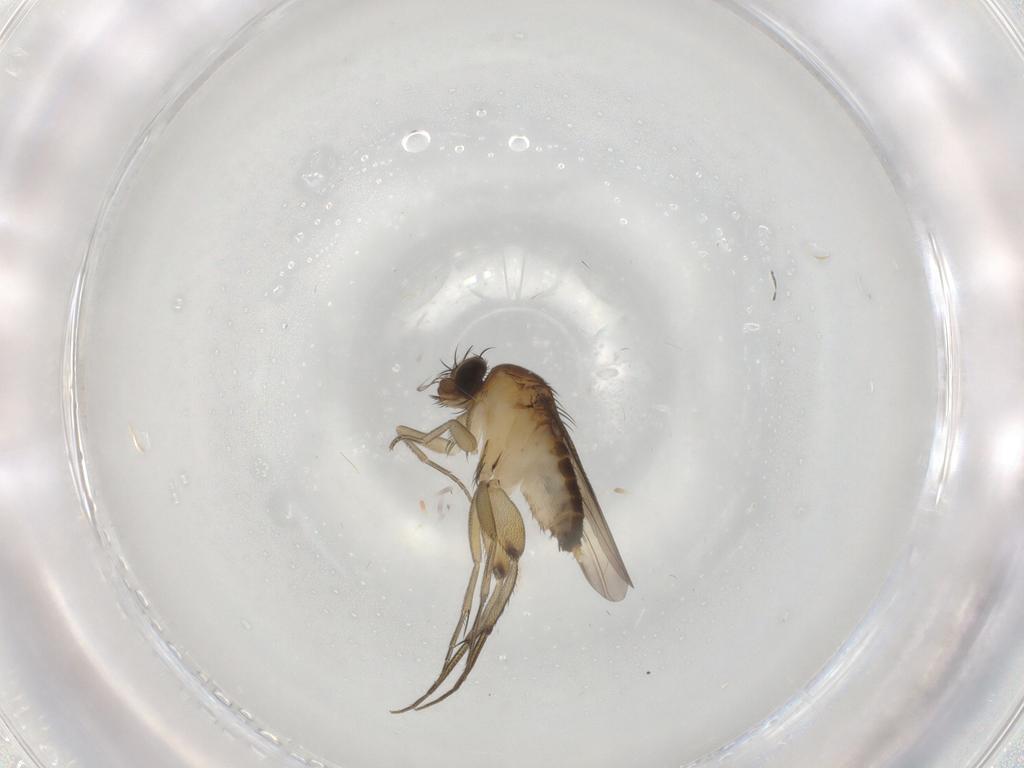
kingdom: Animalia
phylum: Arthropoda
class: Insecta
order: Diptera
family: Phoridae
